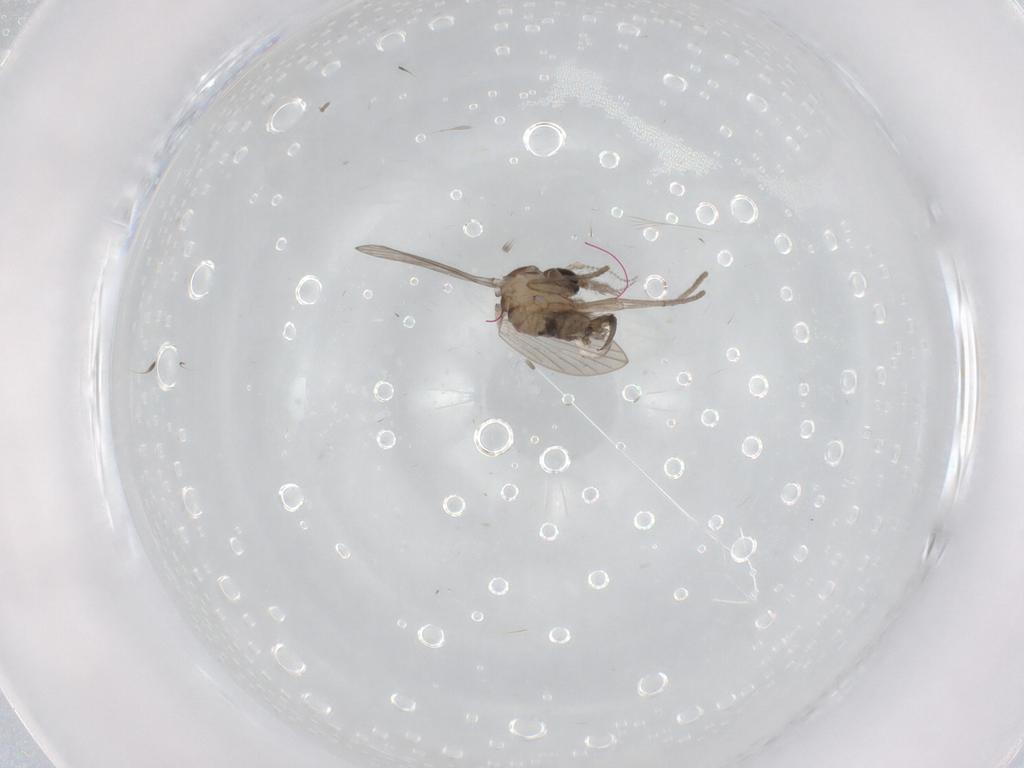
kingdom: Animalia
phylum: Arthropoda
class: Insecta
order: Diptera
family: Psychodidae
